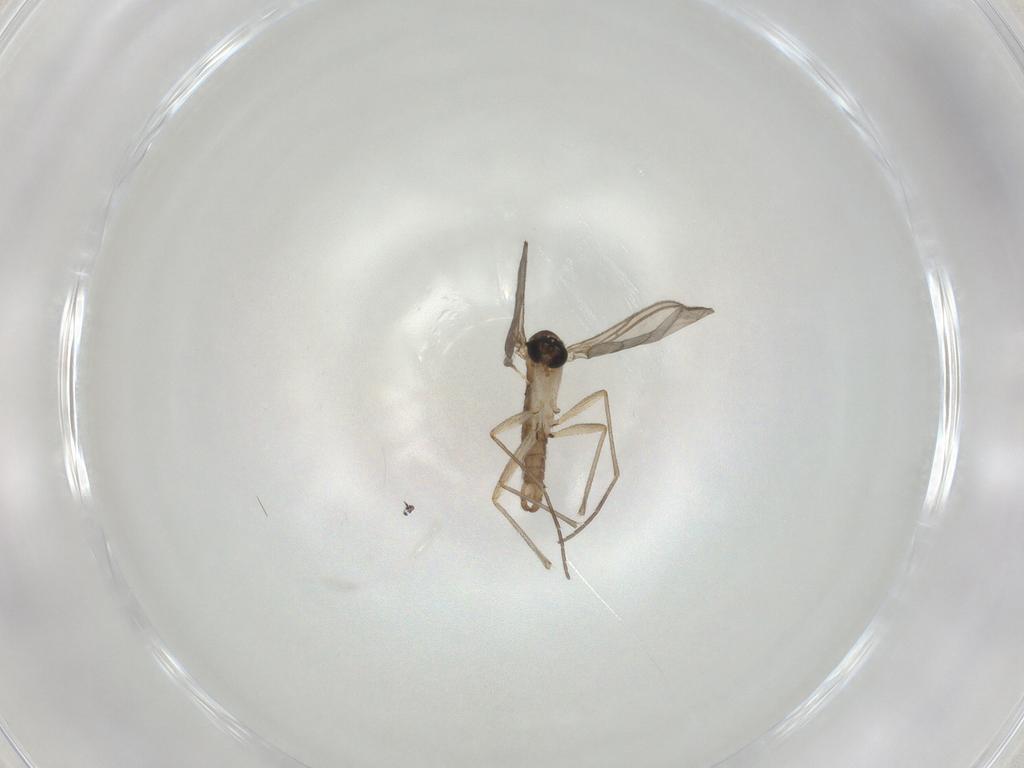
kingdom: Animalia
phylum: Arthropoda
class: Insecta
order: Diptera
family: Sciaridae
